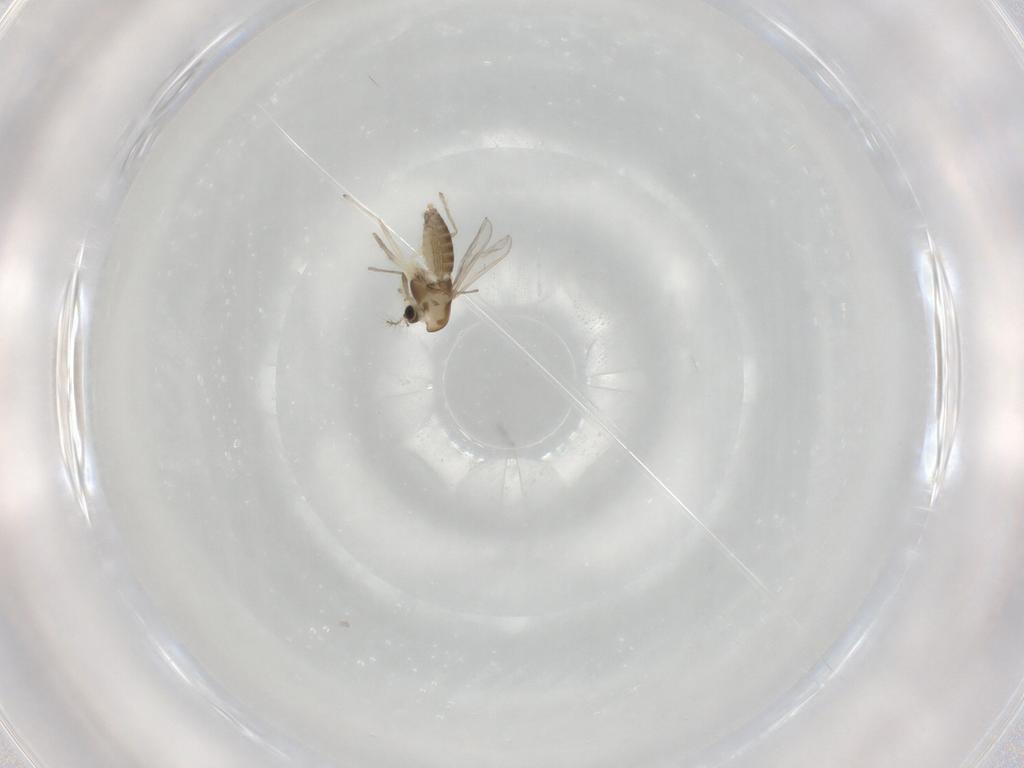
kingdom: Animalia
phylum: Arthropoda
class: Insecta
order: Diptera
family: Chironomidae
